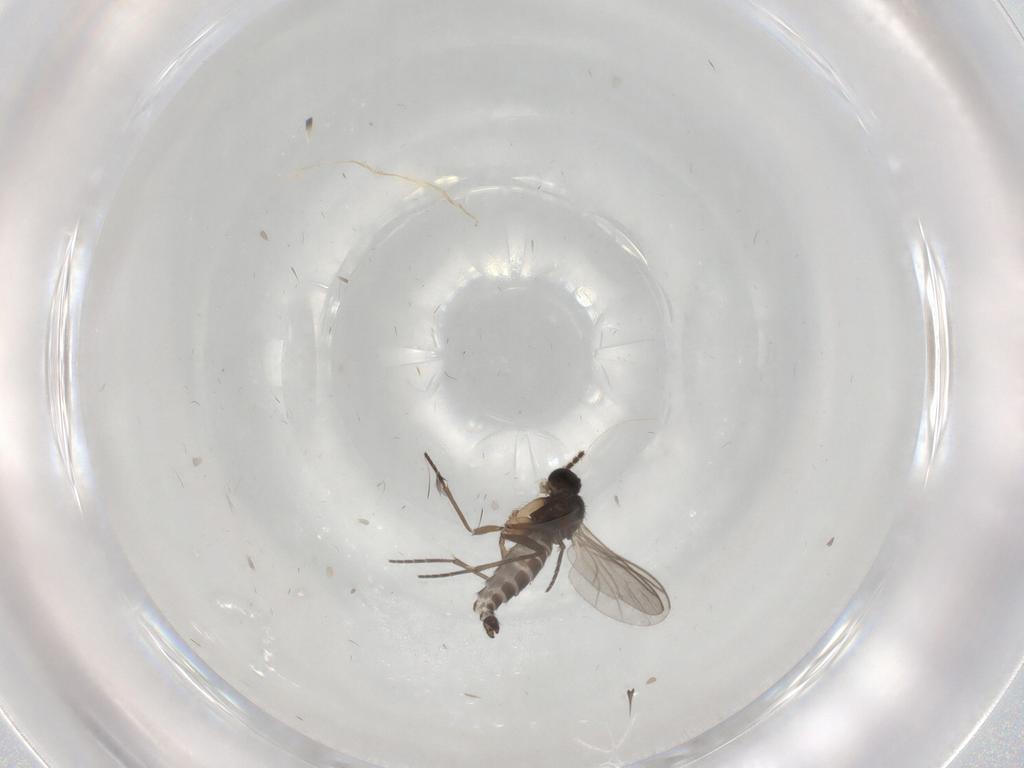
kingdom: Animalia
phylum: Arthropoda
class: Insecta
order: Diptera
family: Sciaridae
